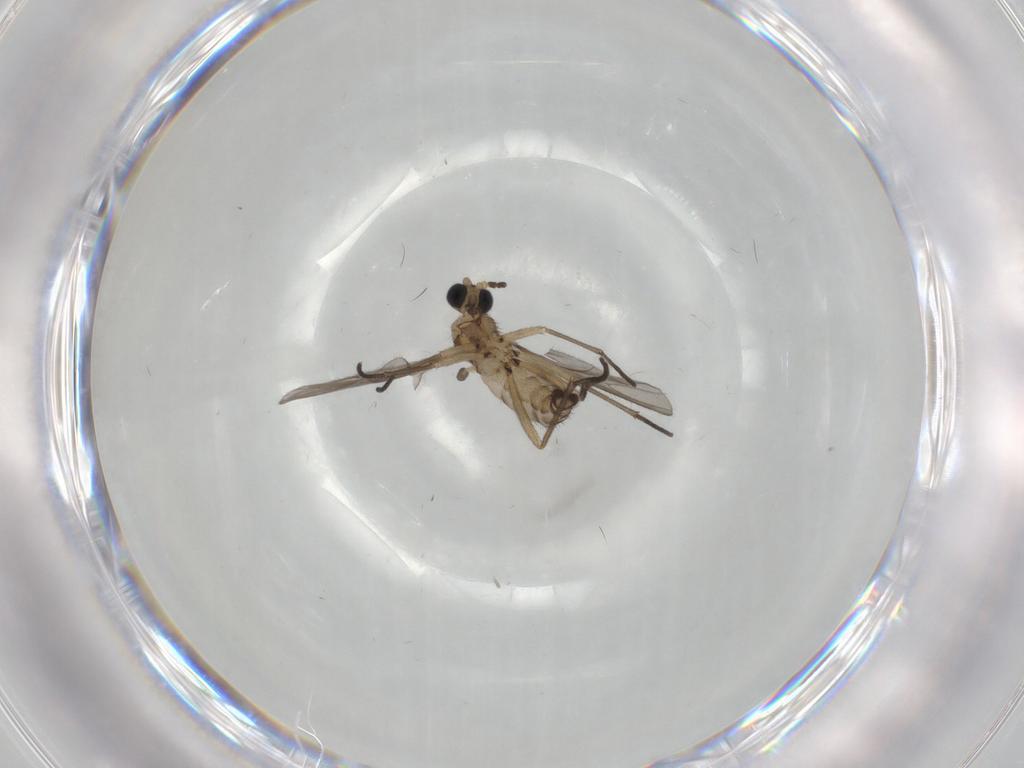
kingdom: Animalia
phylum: Arthropoda
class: Insecta
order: Diptera
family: Sciaridae
